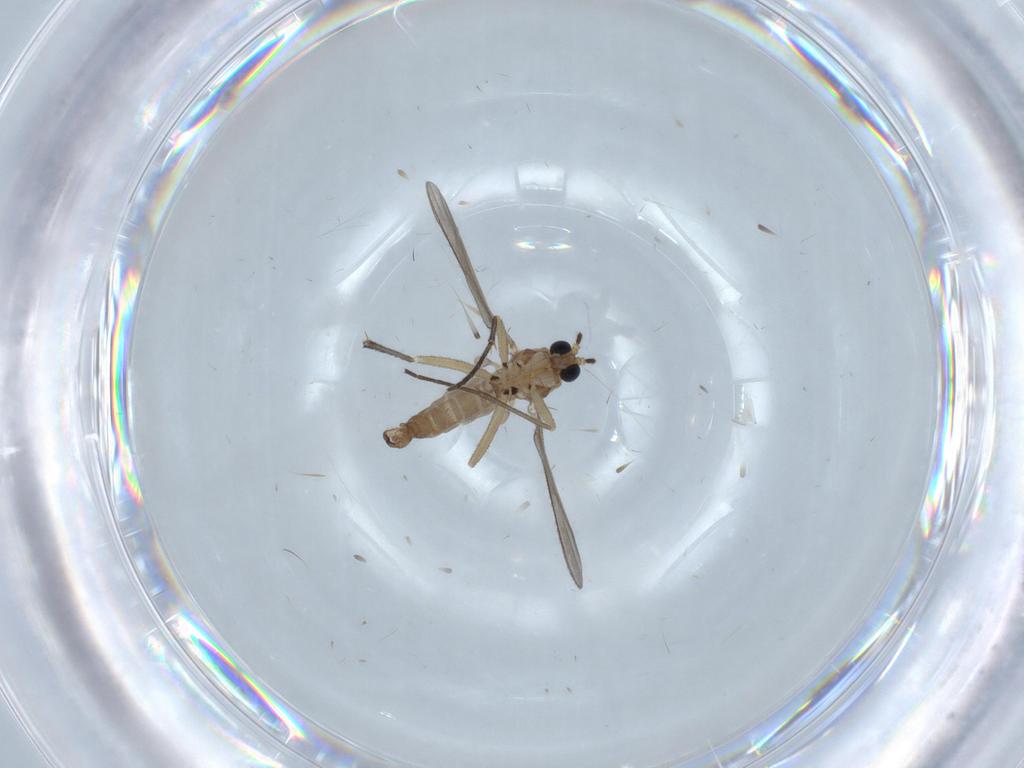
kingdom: Animalia
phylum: Arthropoda
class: Insecta
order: Diptera
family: Sciaridae
